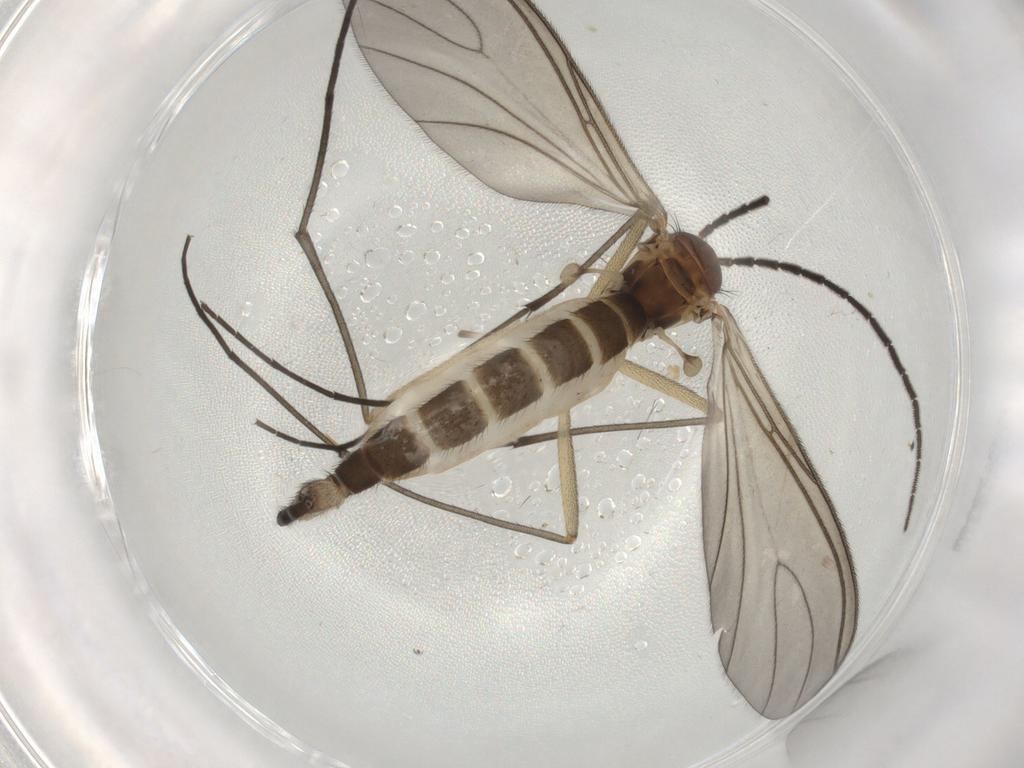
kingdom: Animalia
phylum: Arthropoda
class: Insecta
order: Diptera
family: Sciaridae
